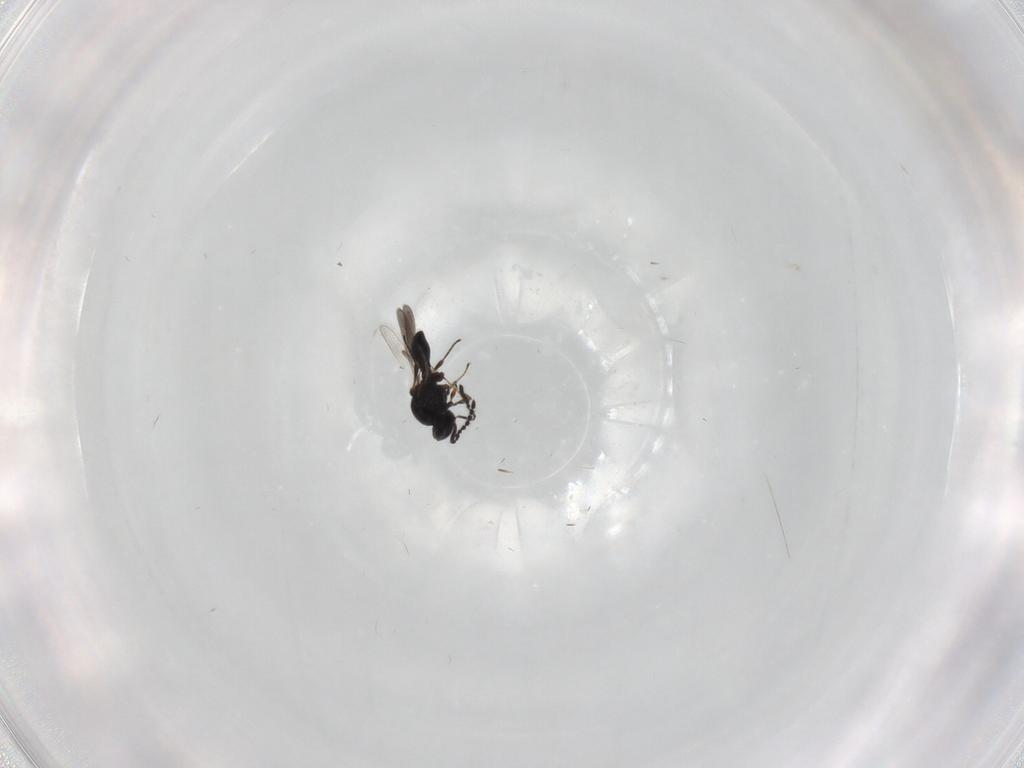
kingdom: Animalia
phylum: Arthropoda
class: Insecta
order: Hymenoptera
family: Platygastridae
